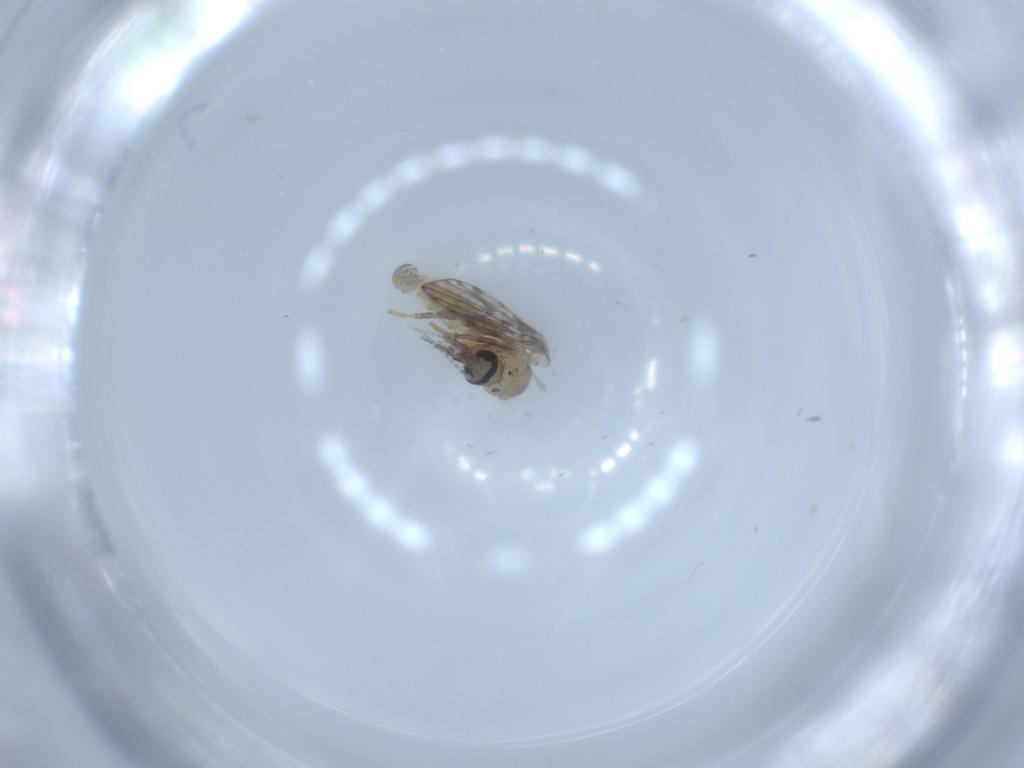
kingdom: Animalia
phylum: Arthropoda
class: Insecta
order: Diptera
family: Psychodidae
